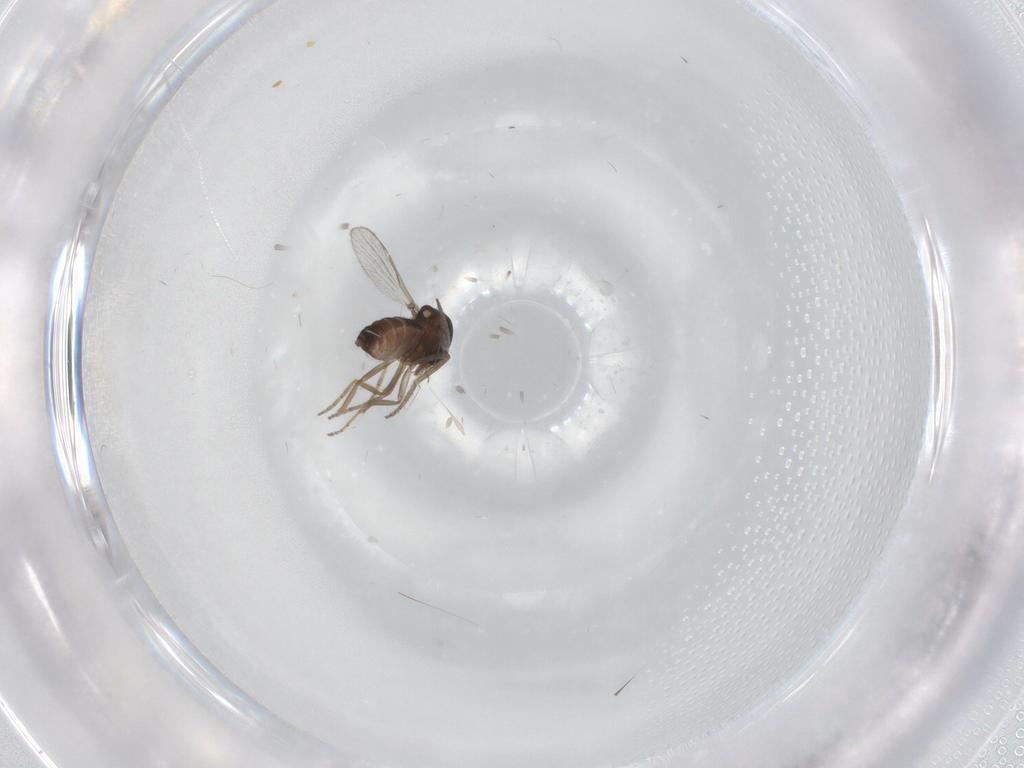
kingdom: Animalia
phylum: Arthropoda
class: Insecta
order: Diptera
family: Ceratopogonidae
